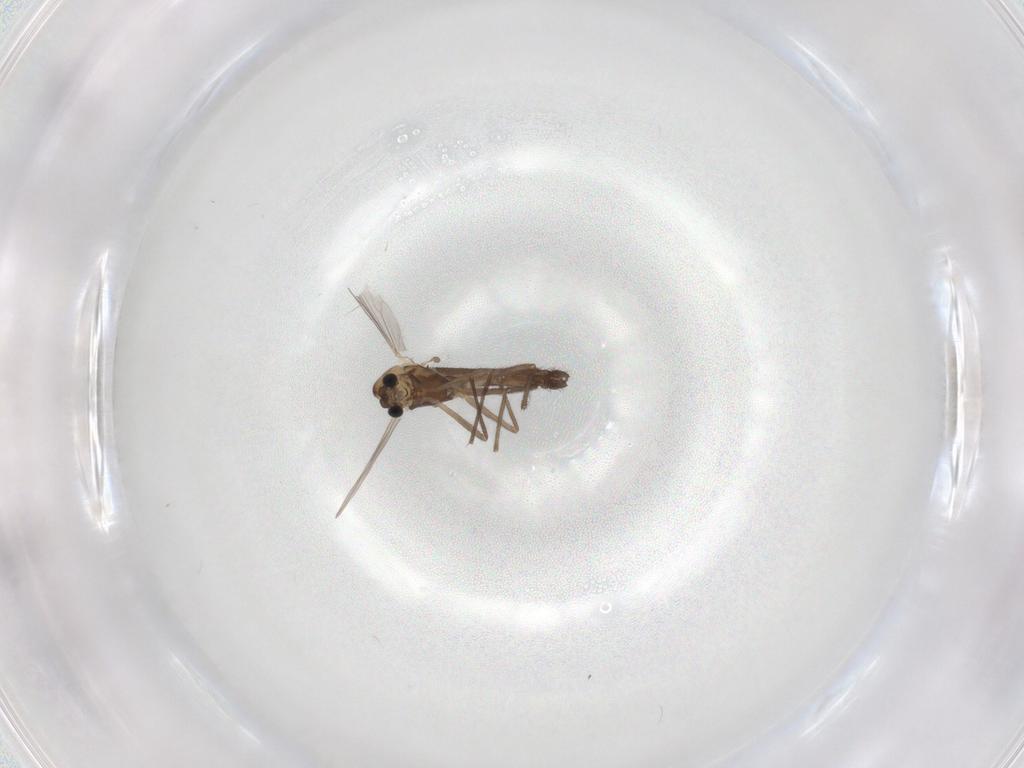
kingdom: Animalia
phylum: Arthropoda
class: Insecta
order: Diptera
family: Chironomidae
